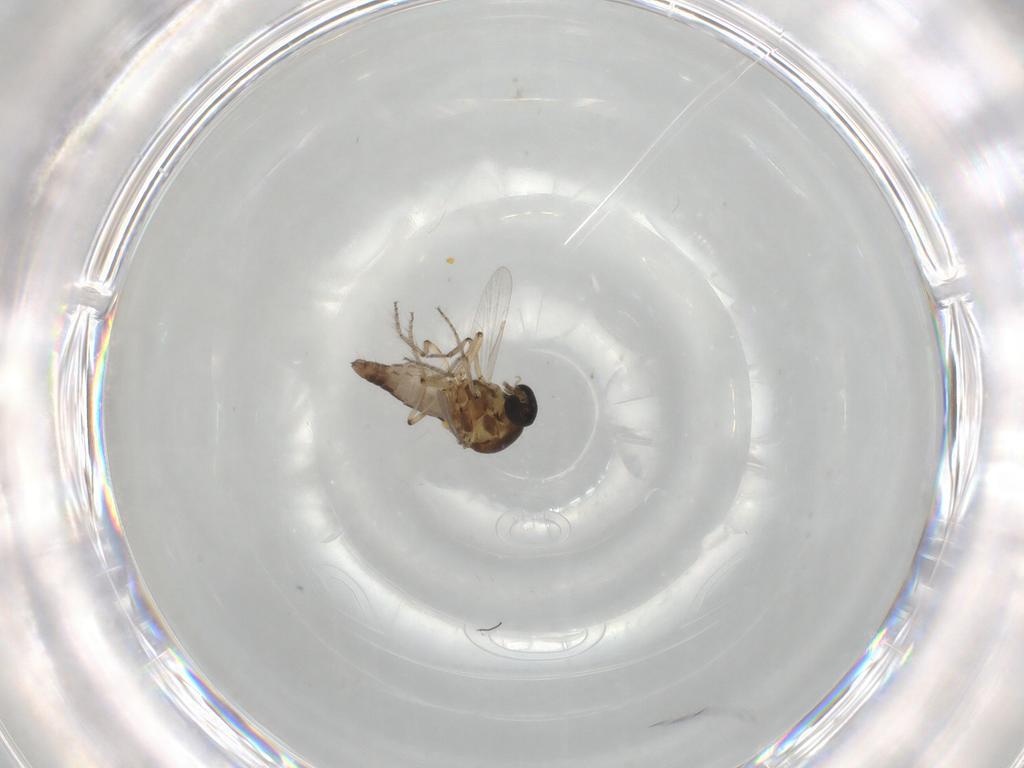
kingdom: Animalia
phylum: Arthropoda
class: Insecta
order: Diptera
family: Ceratopogonidae
